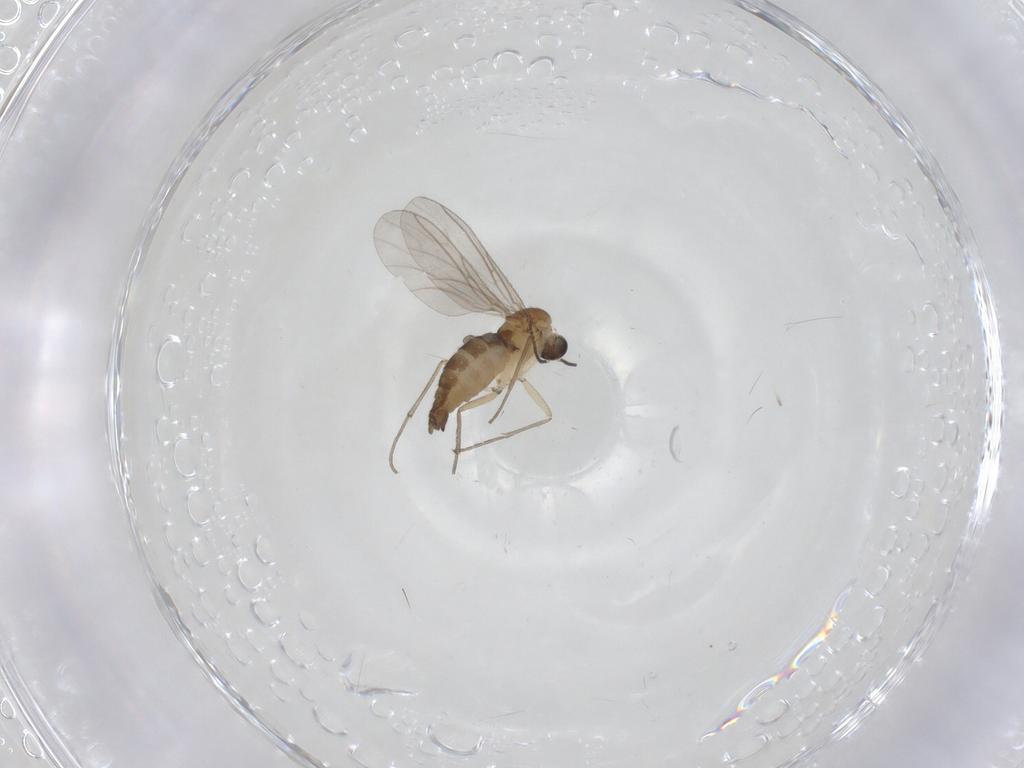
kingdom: Animalia
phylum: Arthropoda
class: Insecta
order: Diptera
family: Sciaridae
